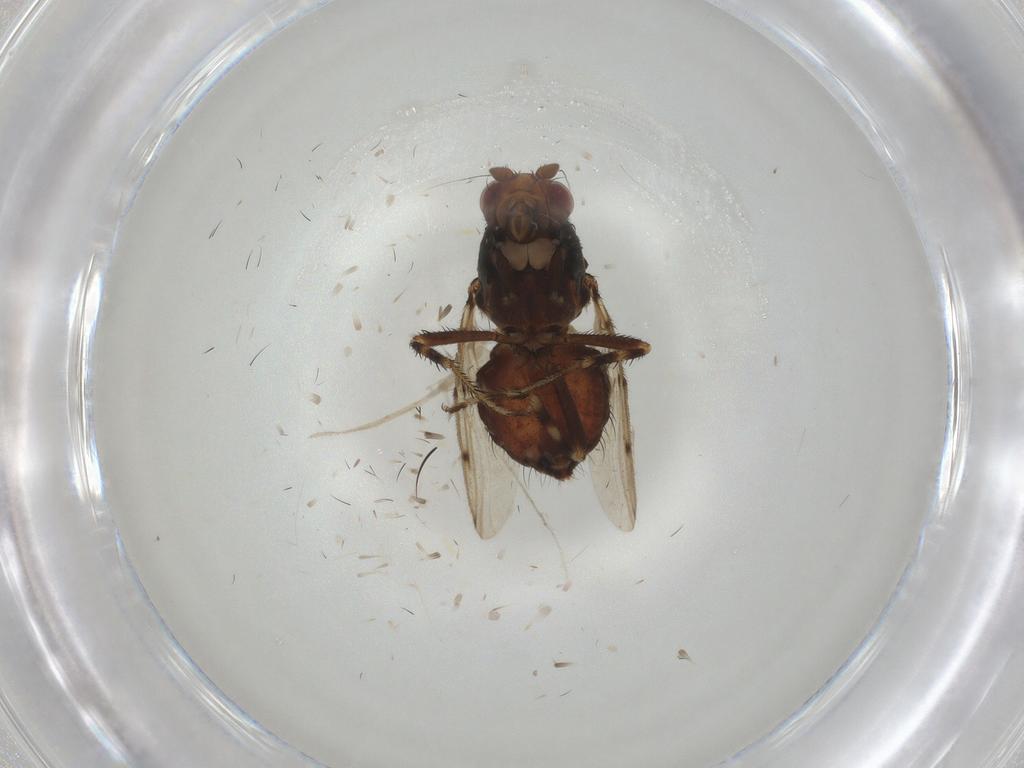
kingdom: Animalia
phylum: Arthropoda
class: Insecta
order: Diptera
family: Sphaeroceridae
